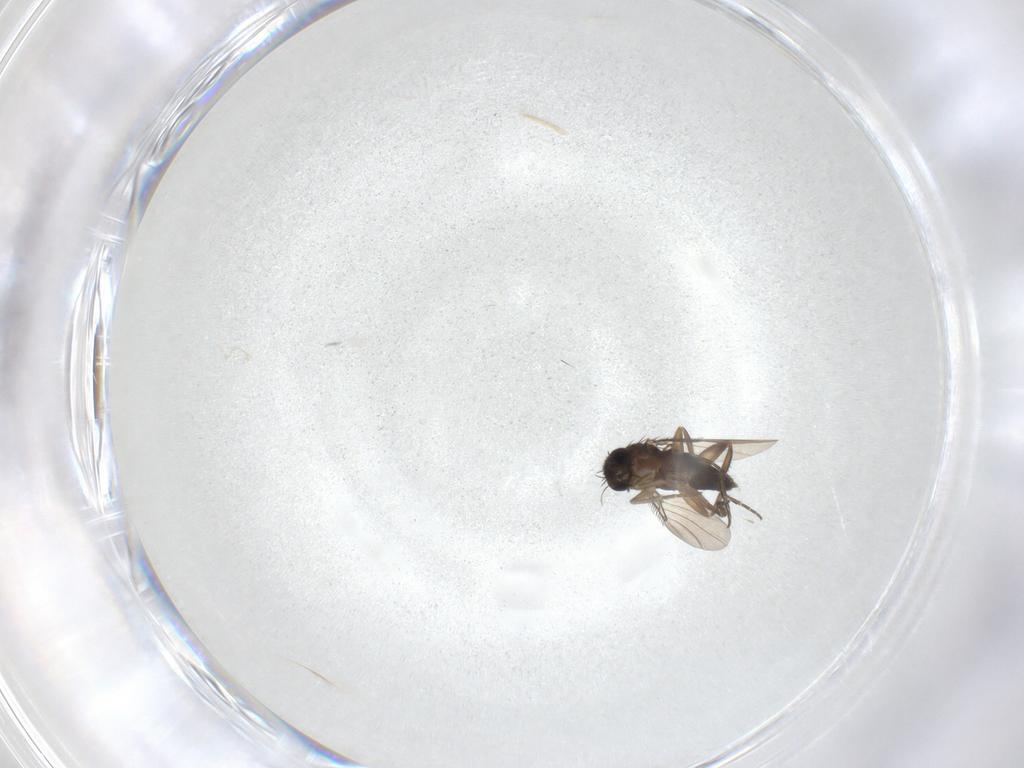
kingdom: Animalia
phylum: Arthropoda
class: Insecta
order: Diptera
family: Phoridae
